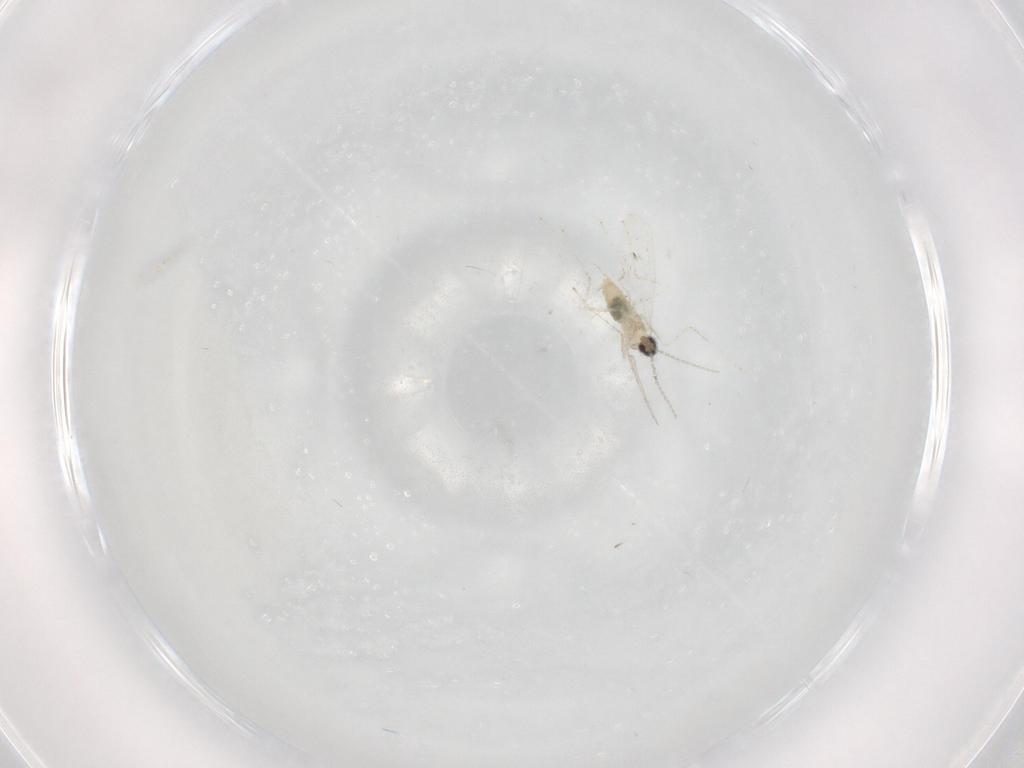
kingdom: Animalia
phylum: Arthropoda
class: Insecta
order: Diptera
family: Cecidomyiidae
